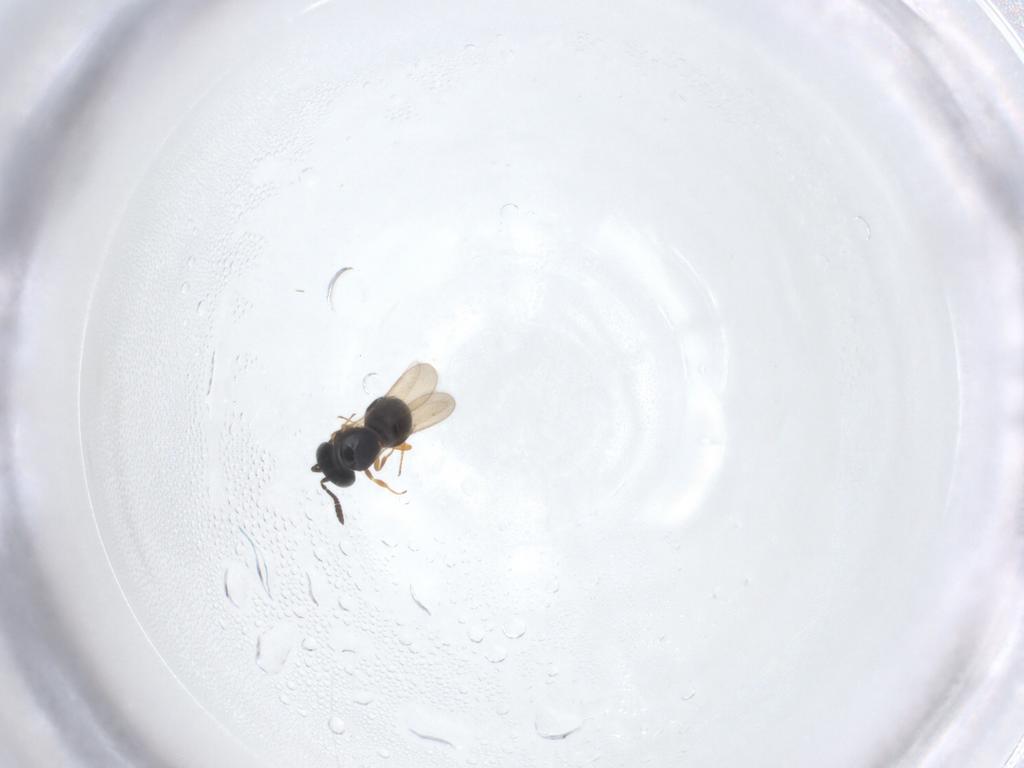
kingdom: Animalia
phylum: Arthropoda
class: Insecta
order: Hymenoptera
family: Scelionidae
